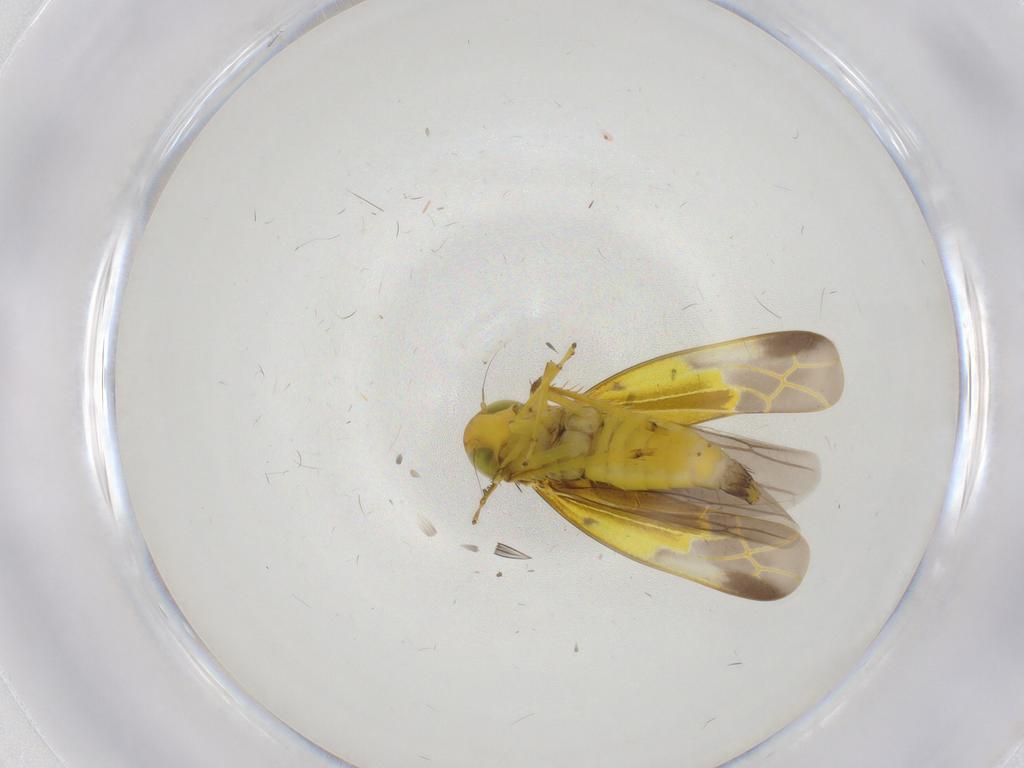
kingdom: Animalia
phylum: Arthropoda
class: Insecta
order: Hemiptera
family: Cicadellidae
